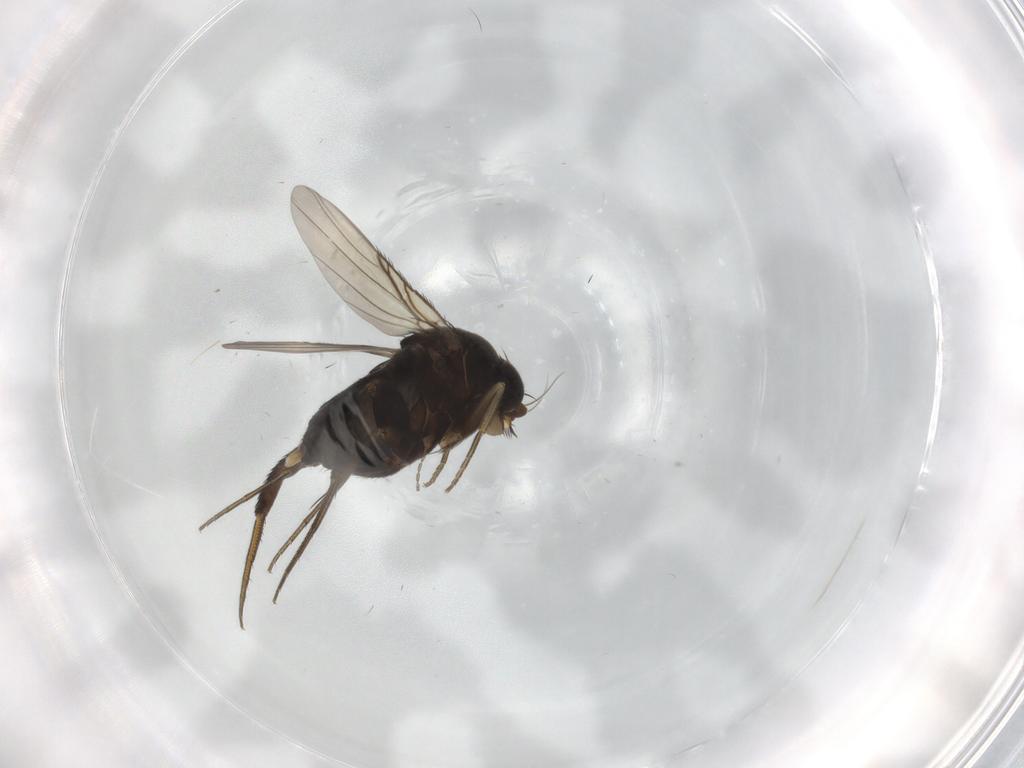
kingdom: Animalia
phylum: Arthropoda
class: Insecta
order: Diptera
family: Phoridae
